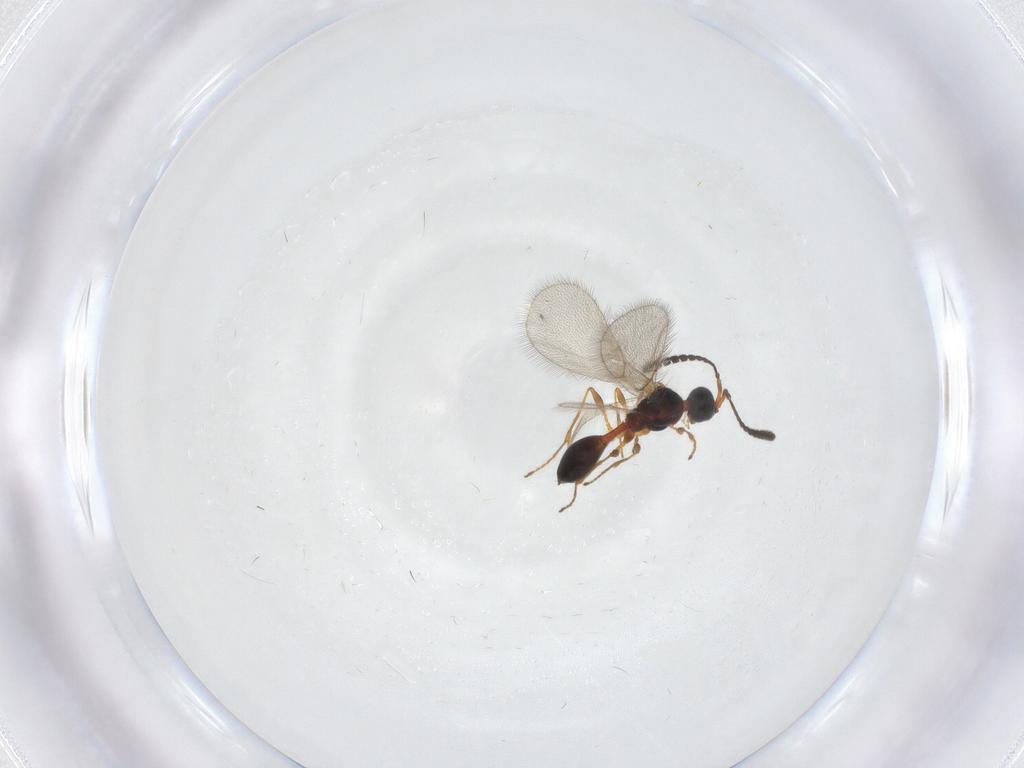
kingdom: Animalia
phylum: Arthropoda
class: Insecta
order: Hymenoptera
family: Diapriidae
